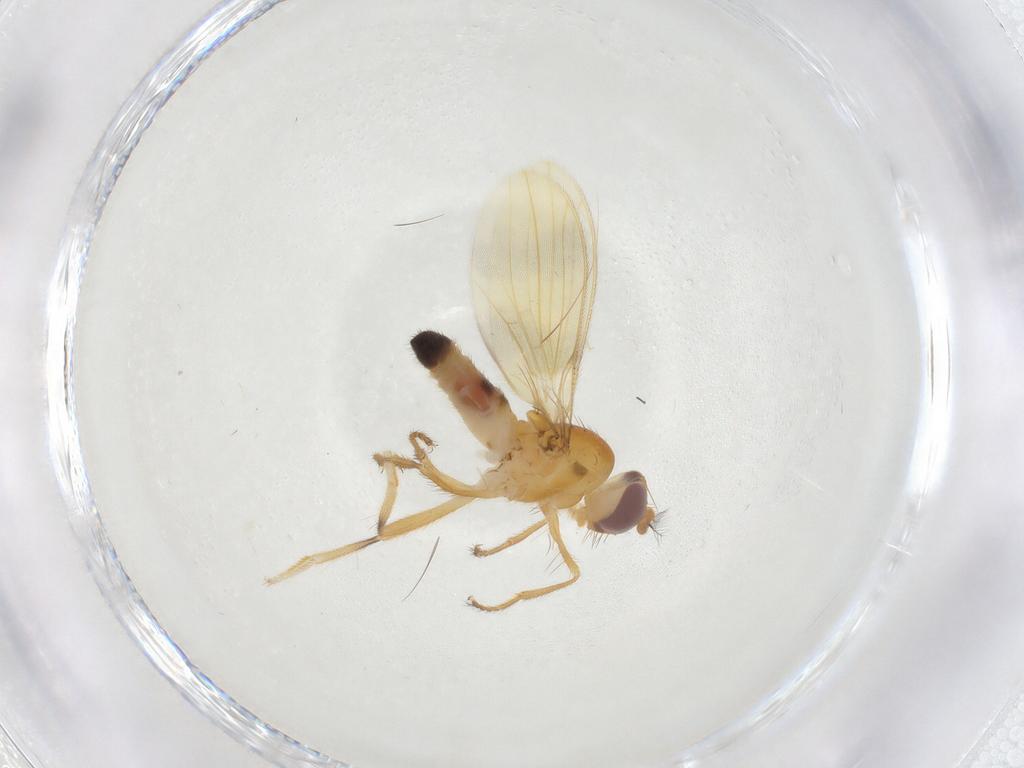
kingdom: Animalia
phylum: Arthropoda
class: Insecta
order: Diptera
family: Periscelididae
